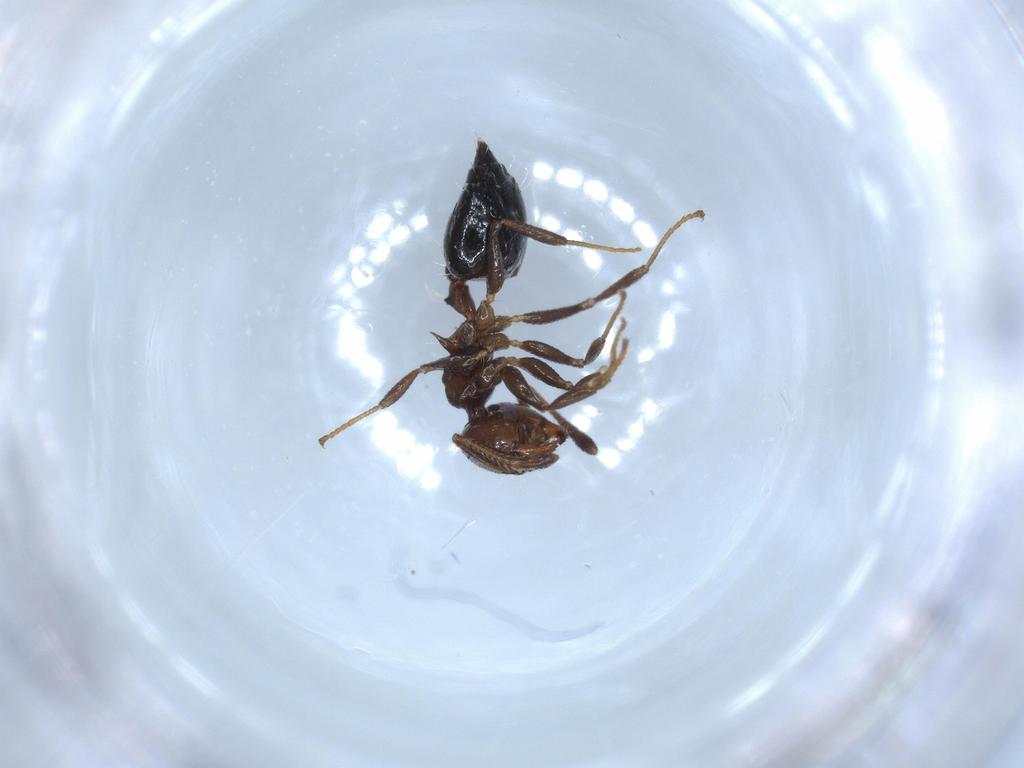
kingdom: Animalia
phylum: Arthropoda
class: Insecta
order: Hymenoptera
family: Formicidae
